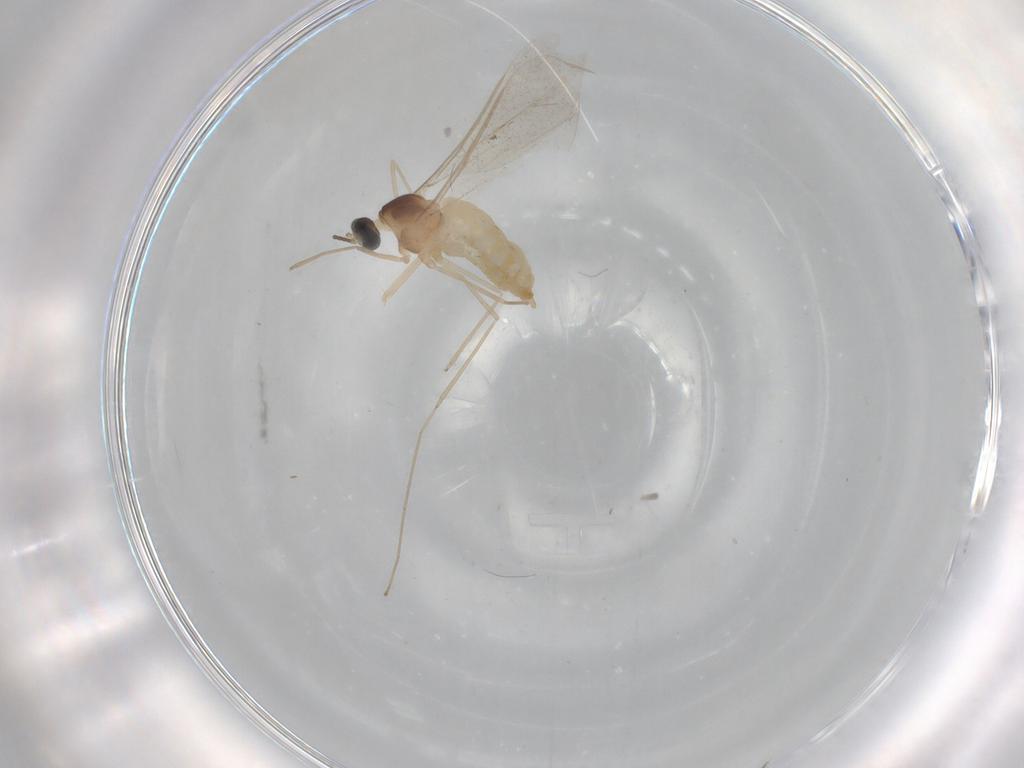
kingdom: Animalia
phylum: Arthropoda
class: Insecta
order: Diptera
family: Cecidomyiidae
